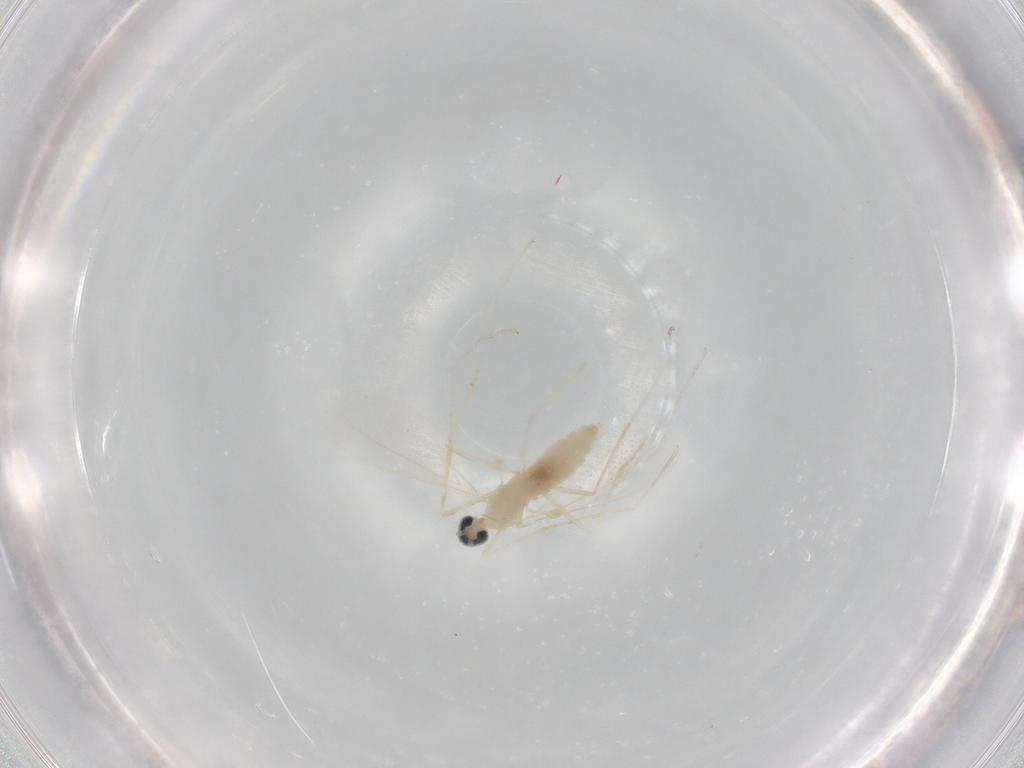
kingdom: Animalia
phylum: Arthropoda
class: Insecta
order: Diptera
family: Cecidomyiidae
